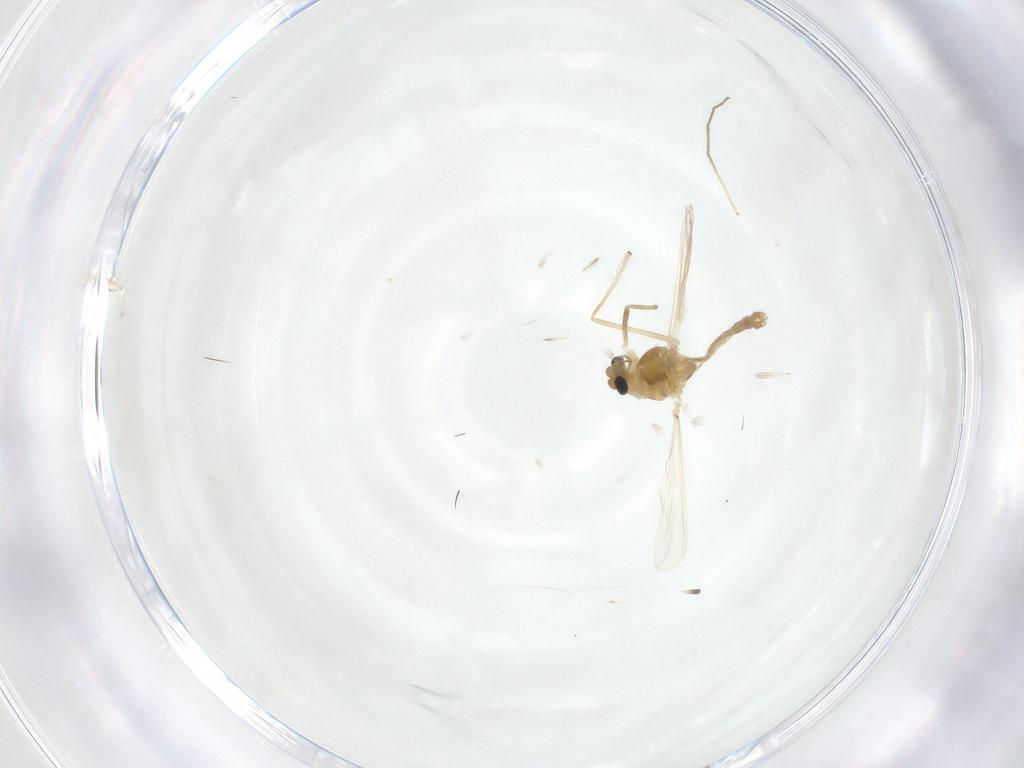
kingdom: Animalia
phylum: Arthropoda
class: Insecta
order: Diptera
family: Chironomidae
